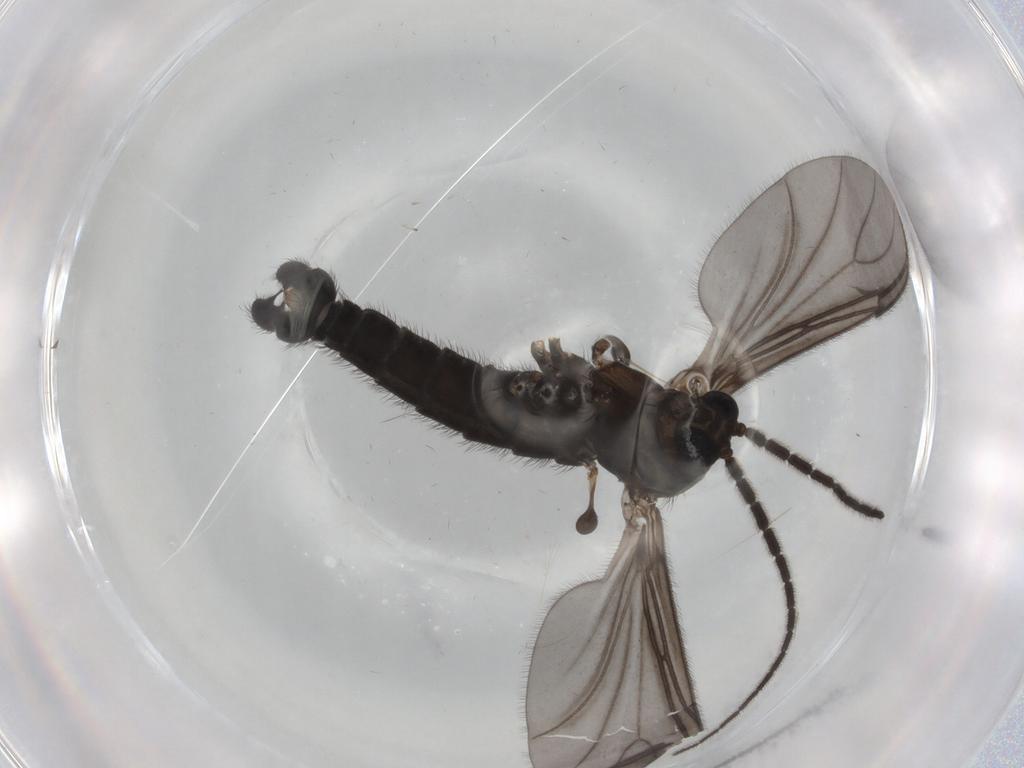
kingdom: Animalia
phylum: Arthropoda
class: Insecta
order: Diptera
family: Sciaridae
